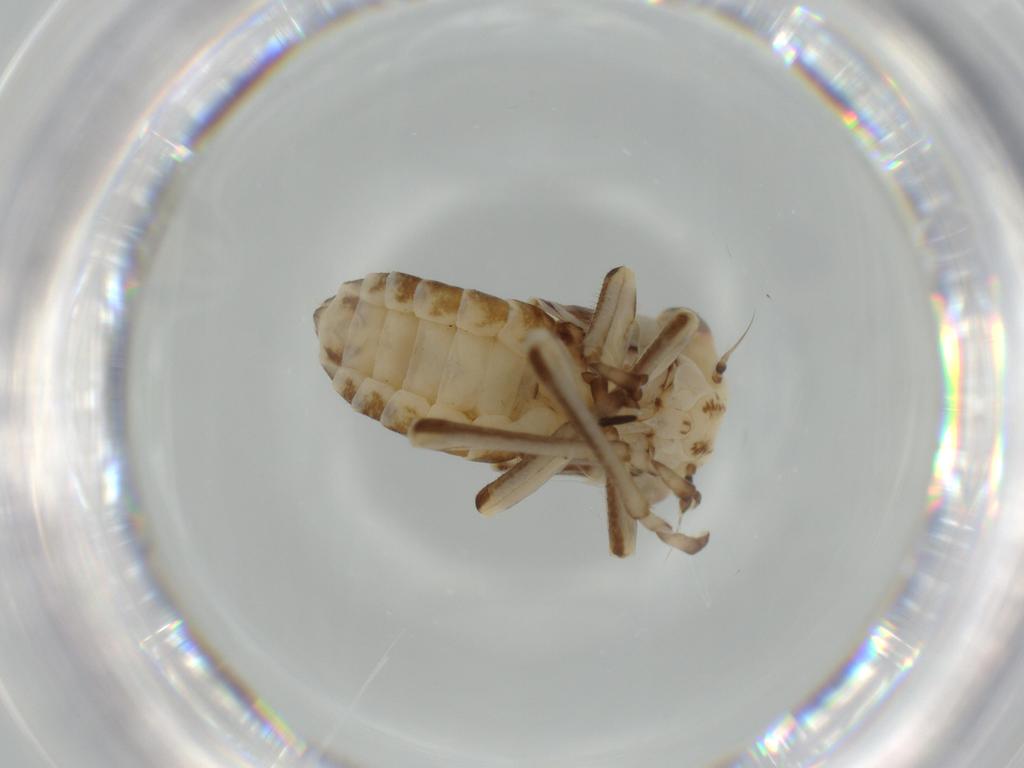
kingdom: Animalia
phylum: Arthropoda
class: Insecta
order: Hemiptera
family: Cicadellidae
